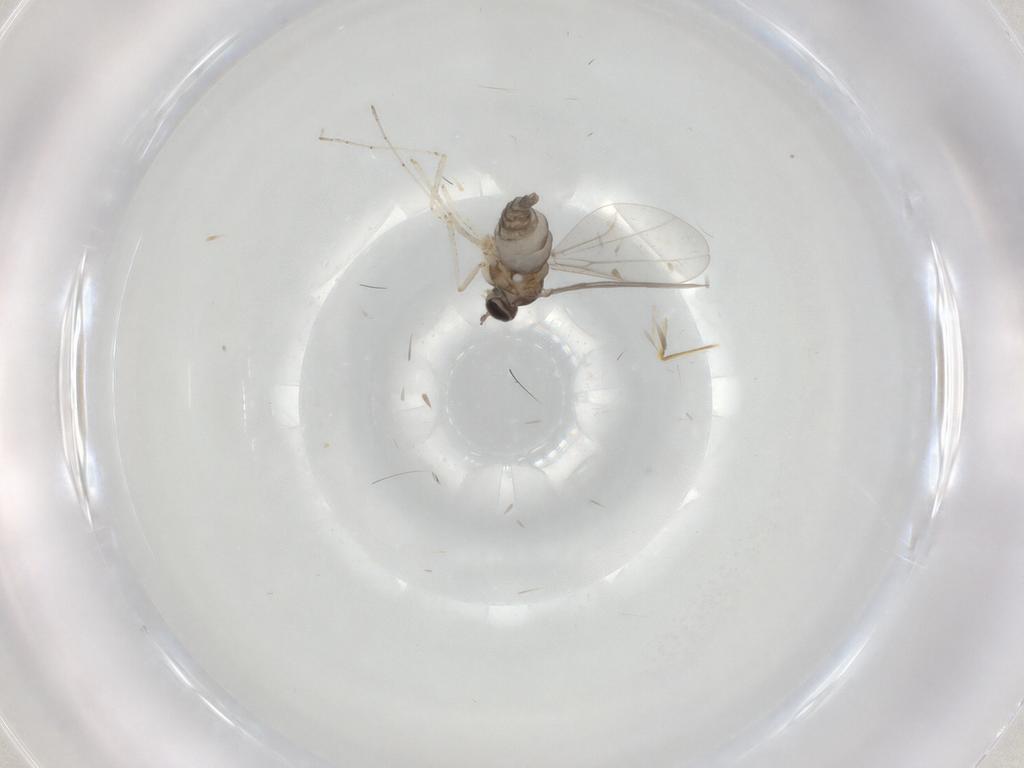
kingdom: Animalia
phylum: Arthropoda
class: Insecta
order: Diptera
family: Cecidomyiidae
